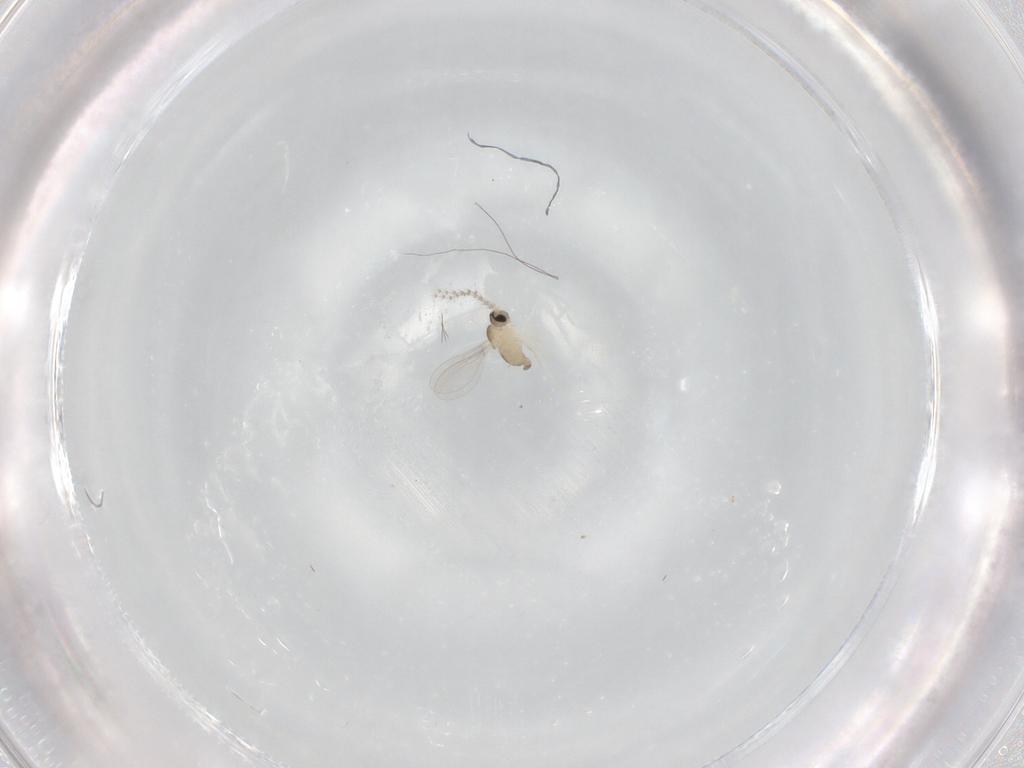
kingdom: Animalia
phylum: Arthropoda
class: Insecta
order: Diptera
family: Cecidomyiidae
